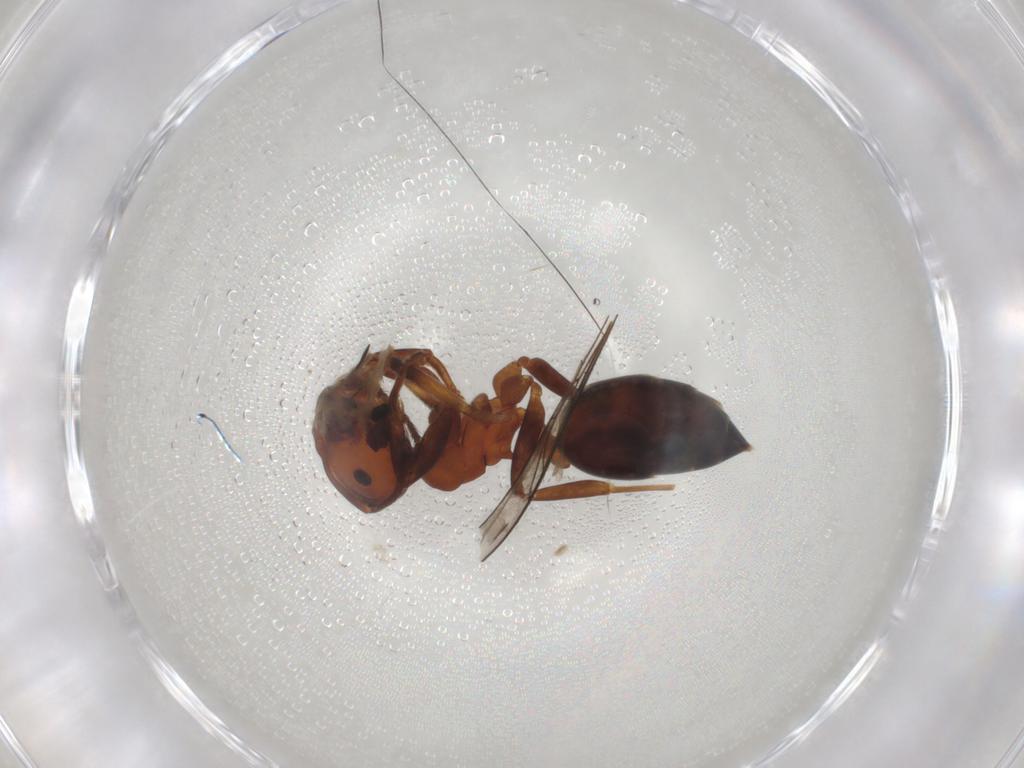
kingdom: Animalia
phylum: Arthropoda
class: Insecta
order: Hymenoptera
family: Formicidae
